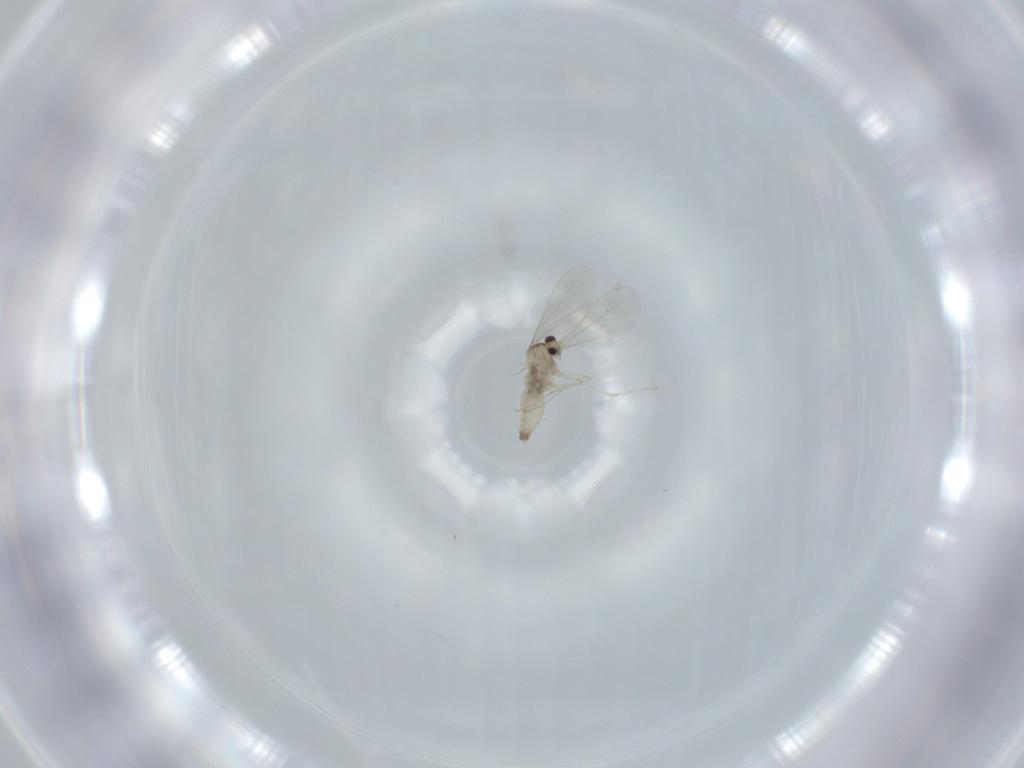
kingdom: Animalia
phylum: Arthropoda
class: Insecta
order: Diptera
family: Cecidomyiidae
